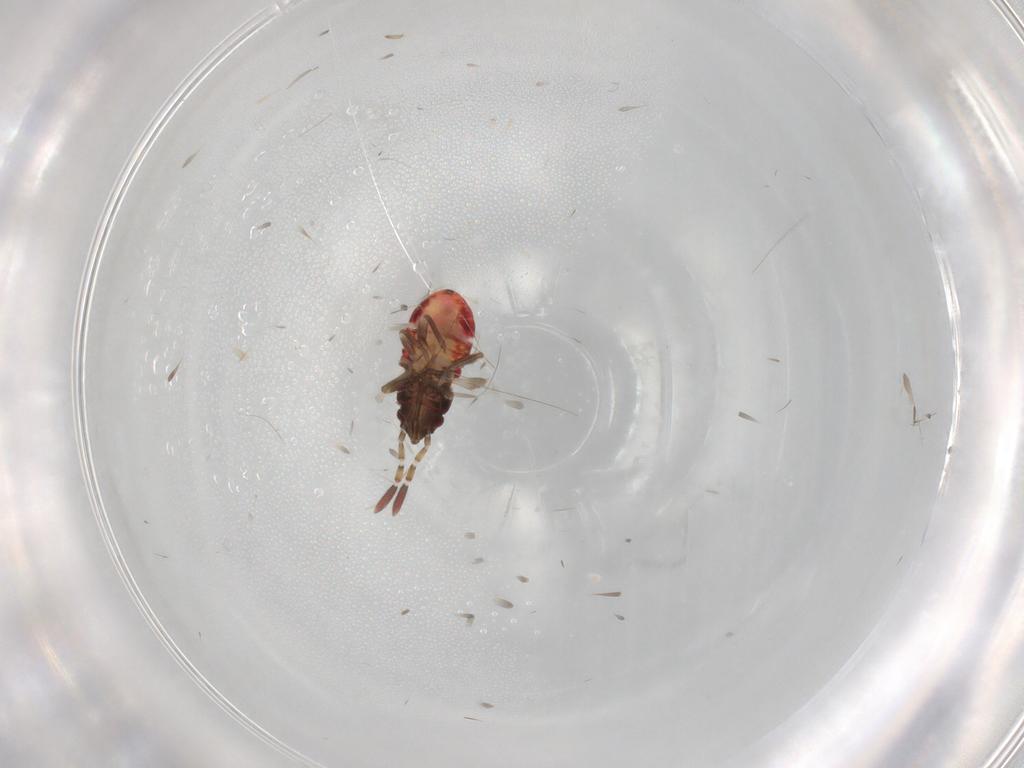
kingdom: Animalia
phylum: Arthropoda
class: Insecta
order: Hemiptera
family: Rhyparochromidae
